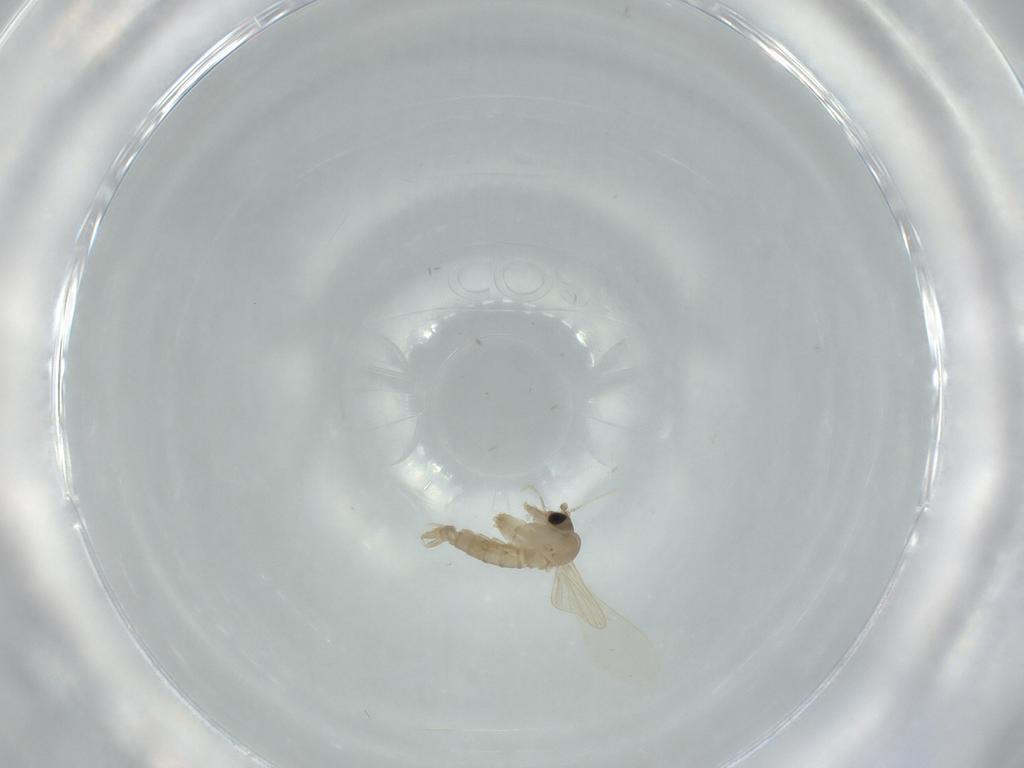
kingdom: Animalia
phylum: Arthropoda
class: Insecta
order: Diptera
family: Psychodidae
